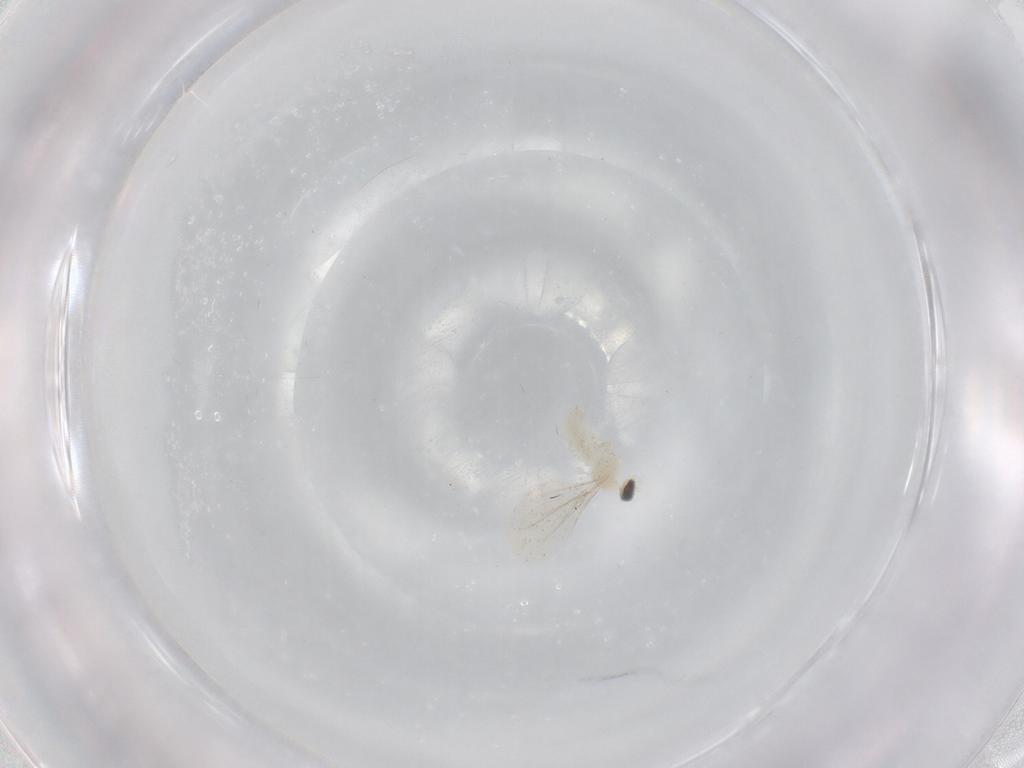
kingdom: Animalia
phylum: Arthropoda
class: Insecta
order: Diptera
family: Cecidomyiidae
